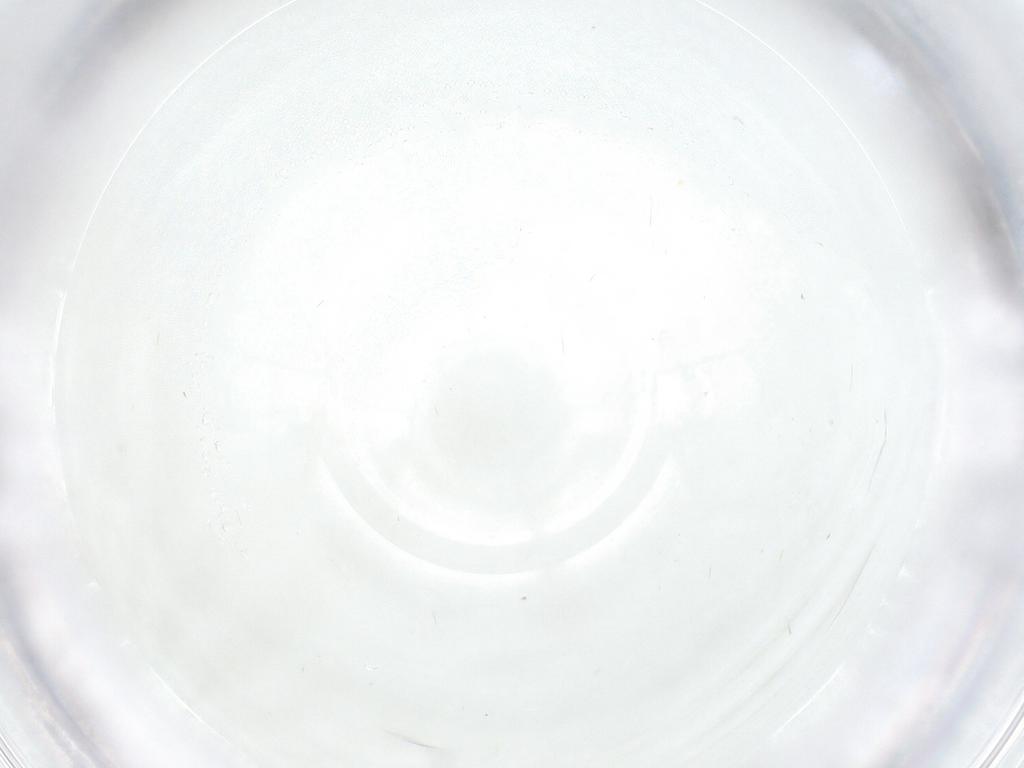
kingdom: Animalia
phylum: Arthropoda
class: Insecta
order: Diptera
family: Cecidomyiidae
